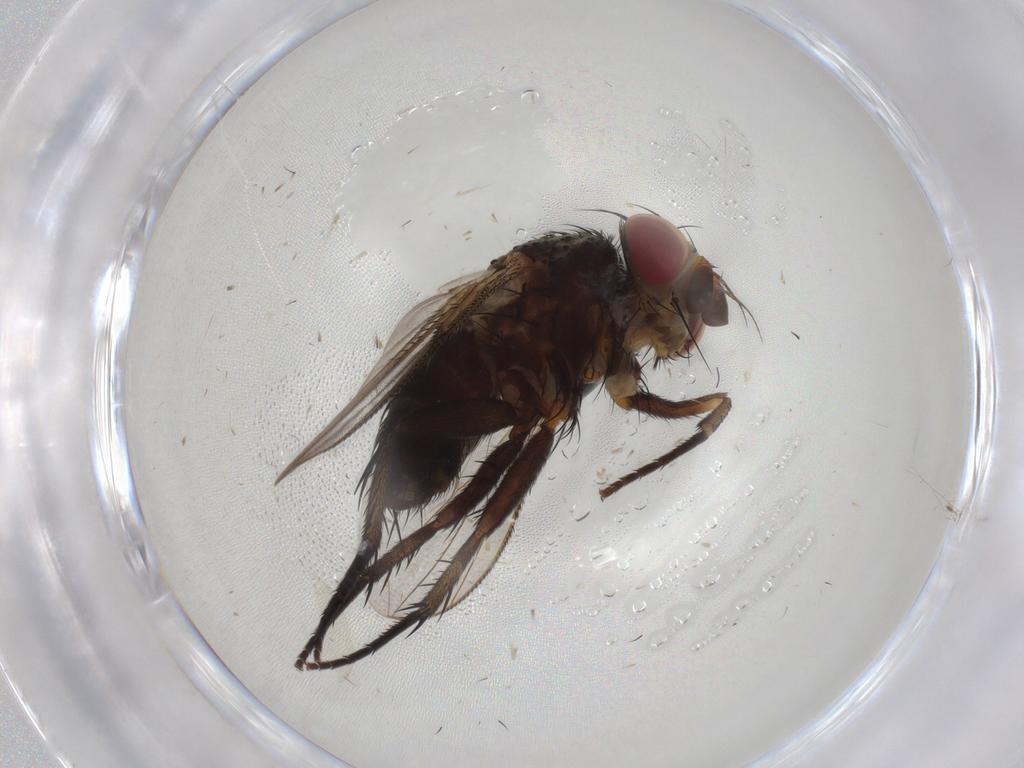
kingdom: Animalia
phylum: Arthropoda
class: Insecta
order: Diptera
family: Tachinidae
